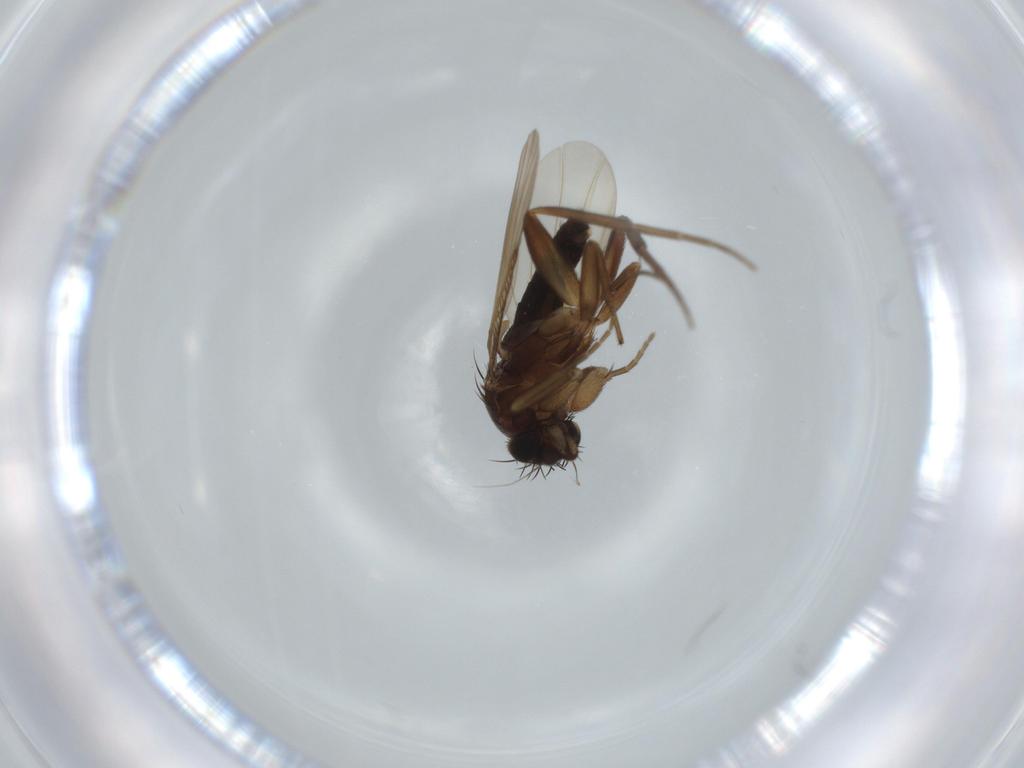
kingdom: Animalia
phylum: Arthropoda
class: Insecta
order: Diptera
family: Phoridae
